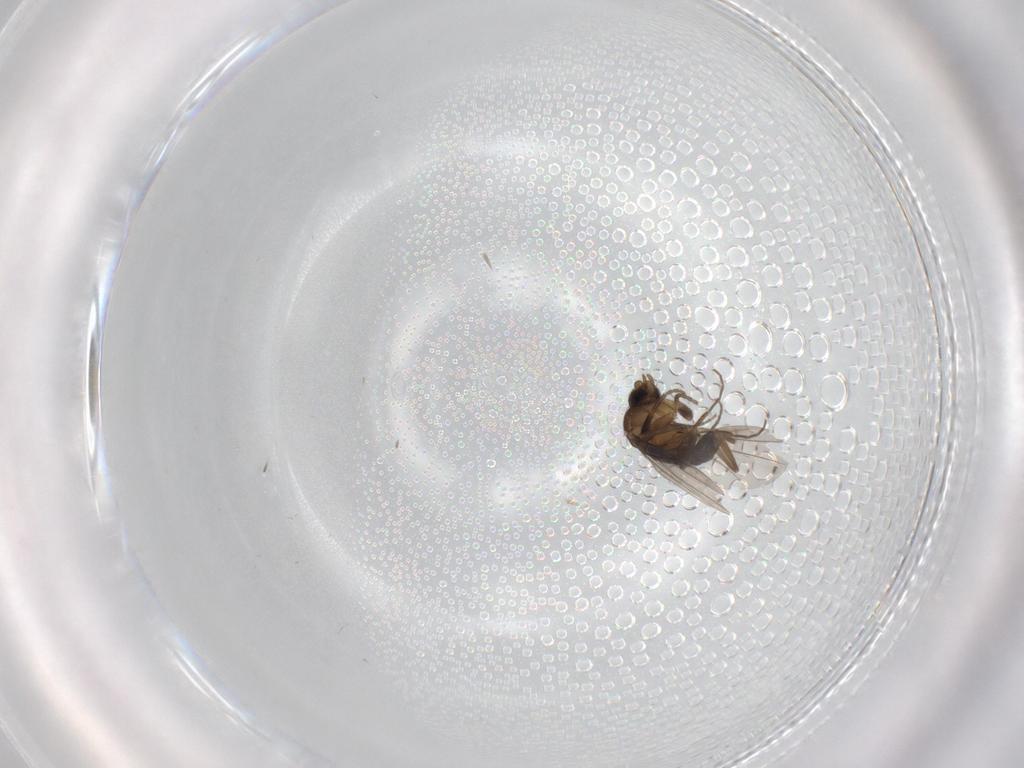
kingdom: Animalia
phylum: Arthropoda
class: Insecta
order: Diptera
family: Phoridae
